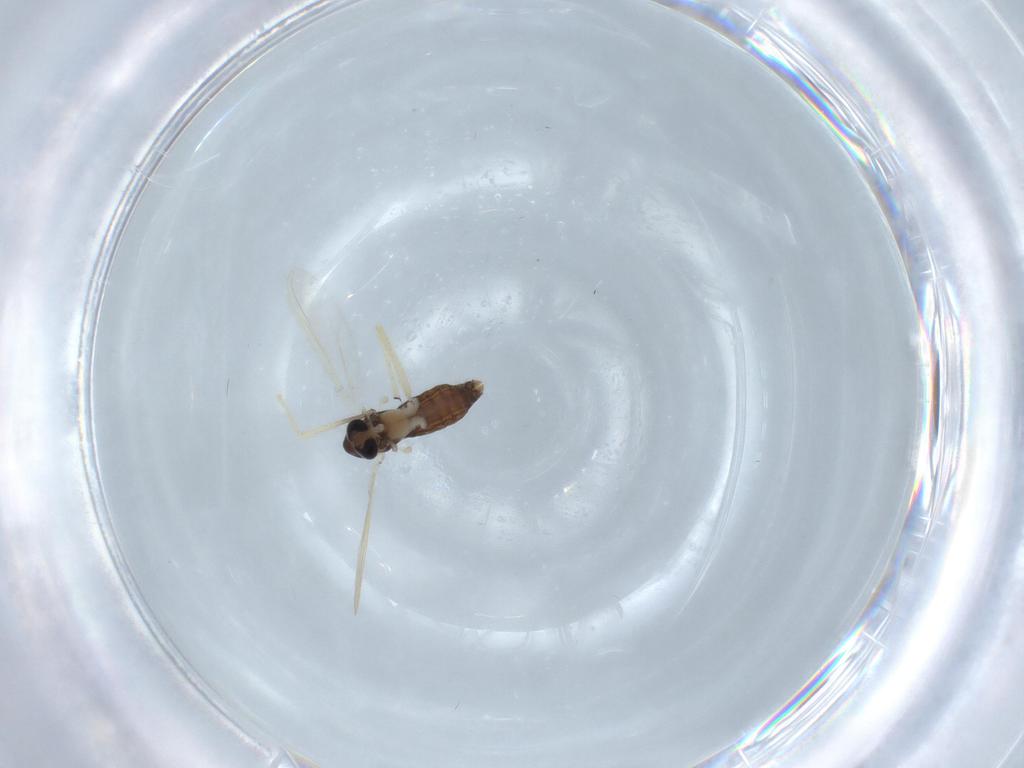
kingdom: Animalia
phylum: Arthropoda
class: Insecta
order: Diptera
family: Chironomidae
